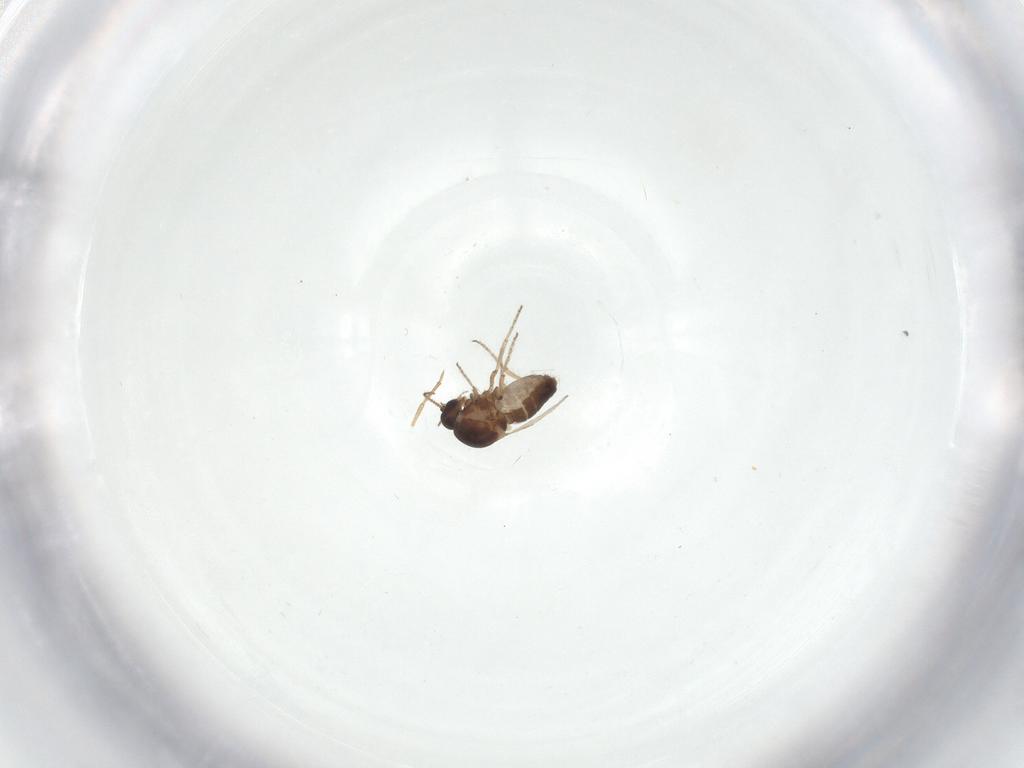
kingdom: Animalia
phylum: Arthropoda
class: Insecta
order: Diptera
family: Ceratopogonidae
